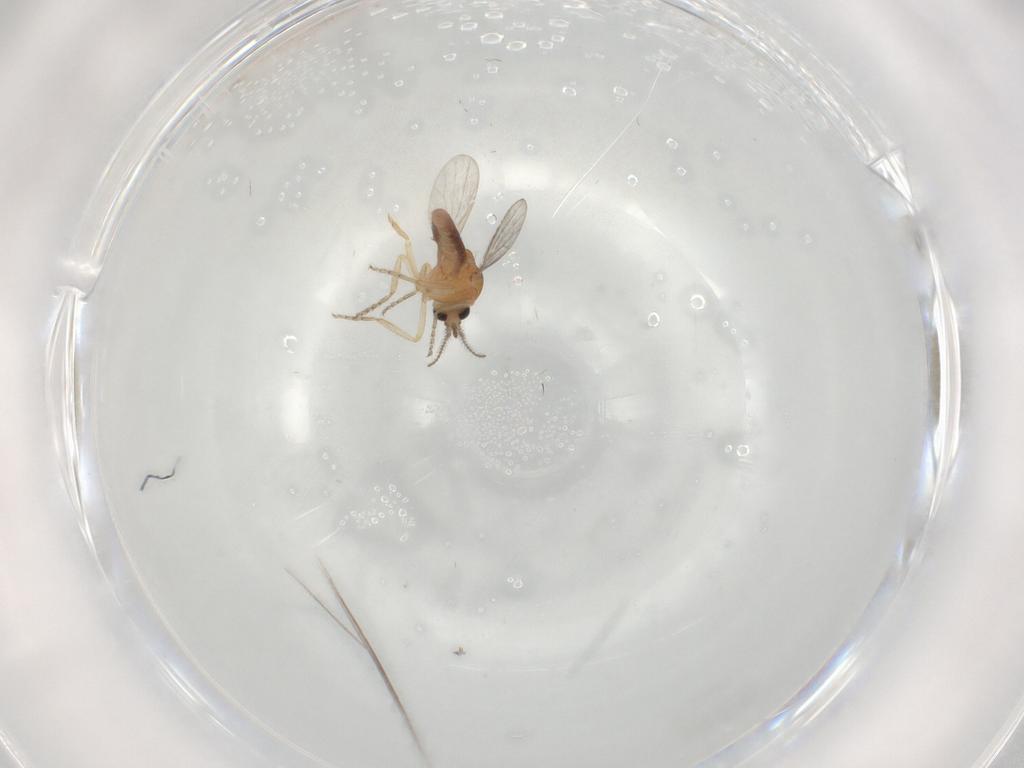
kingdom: Animalia
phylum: Arthropoda
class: Insecta
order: Diptera
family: Ceratopogonidae
